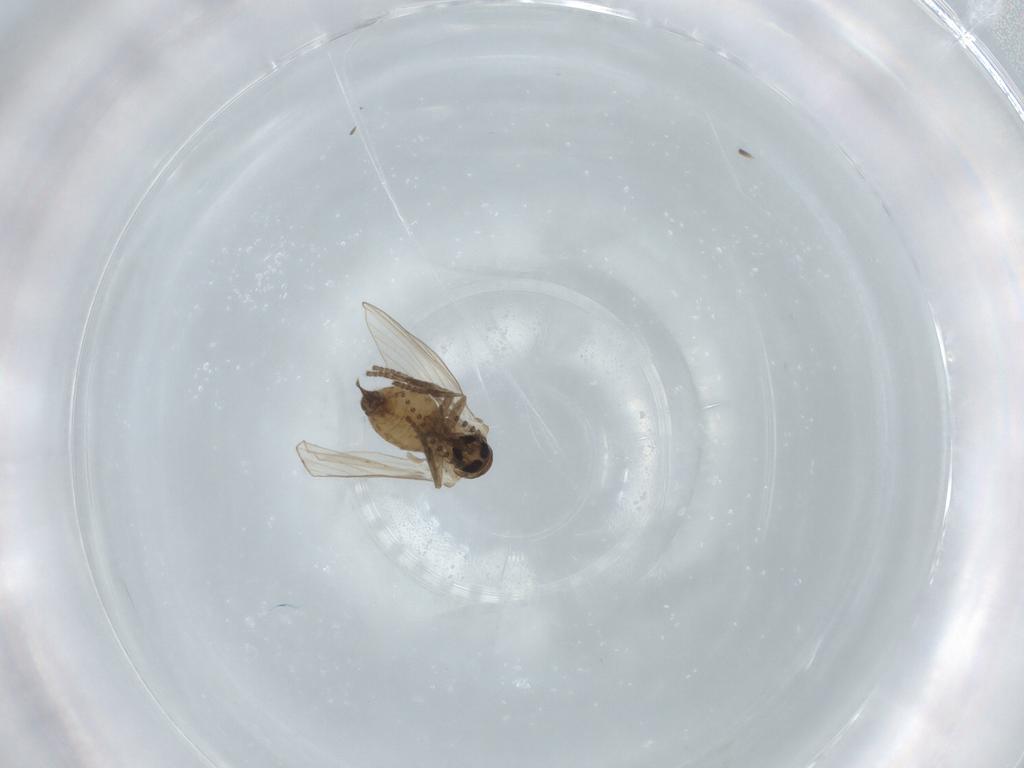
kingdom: Animalia
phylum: Arthropoda
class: Insecta
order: Diptera
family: Psychodidae
